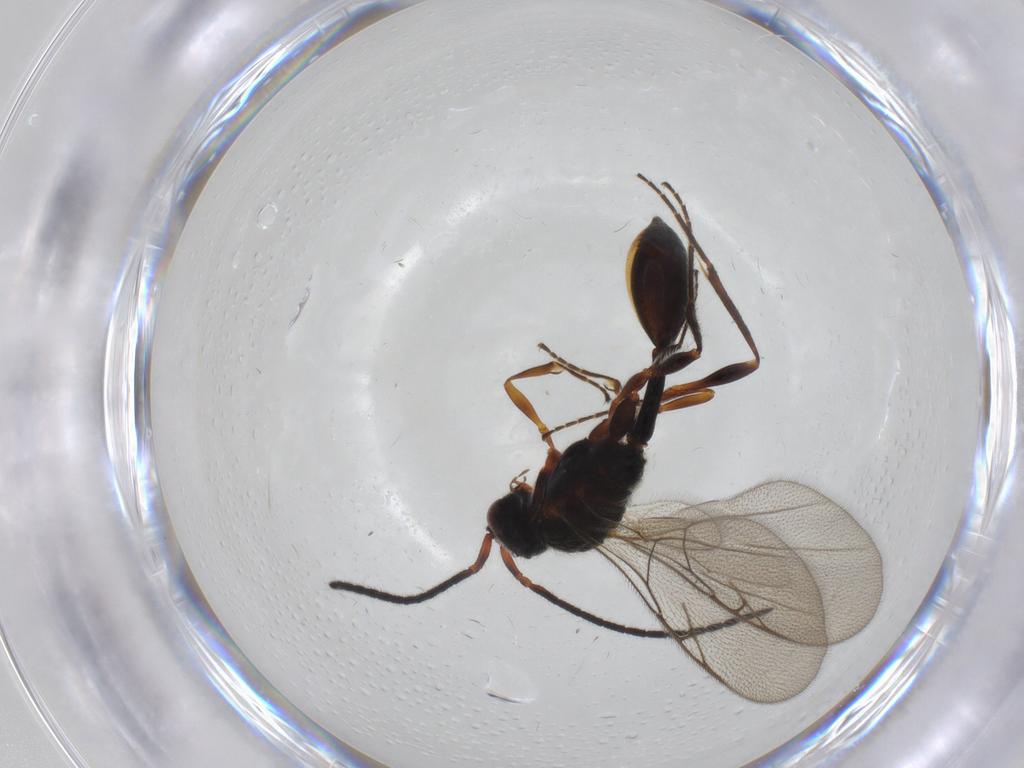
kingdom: Animalia
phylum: Arthropoda
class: Insecta
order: Hymenoptera
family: Diapriidae
